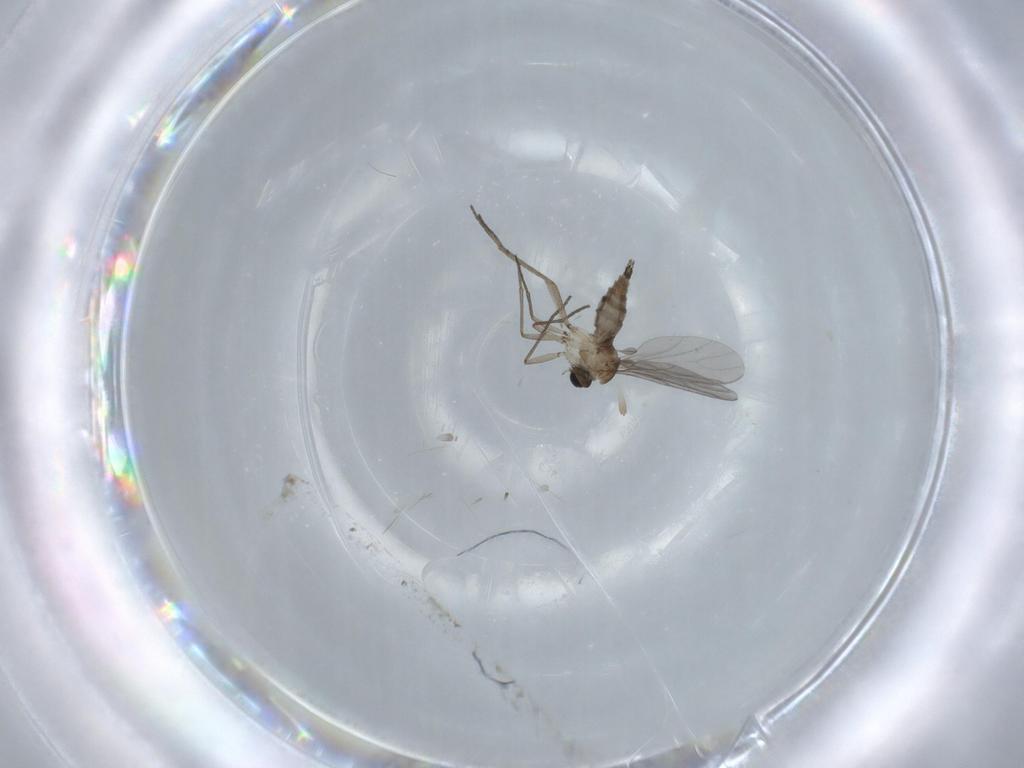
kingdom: Animalia
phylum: Arthropoda
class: Insecta
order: Diptera
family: Sciaridae
